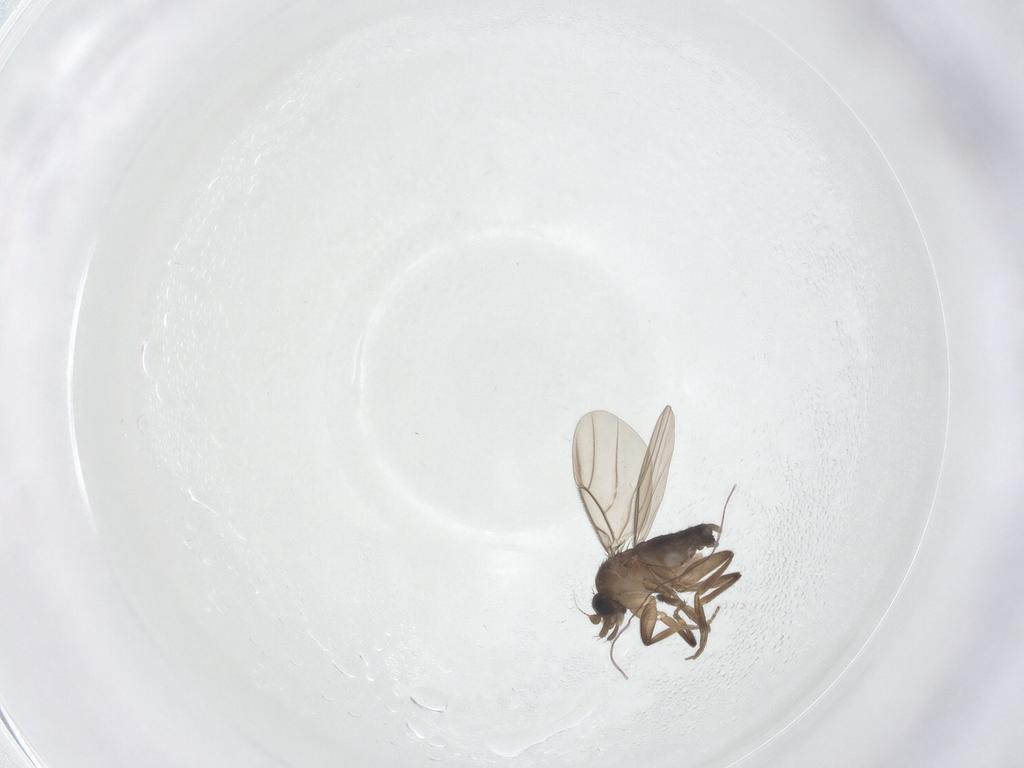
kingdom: Animalia
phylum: Arthropoda
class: Insecta
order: Diptera
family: Phoridae
